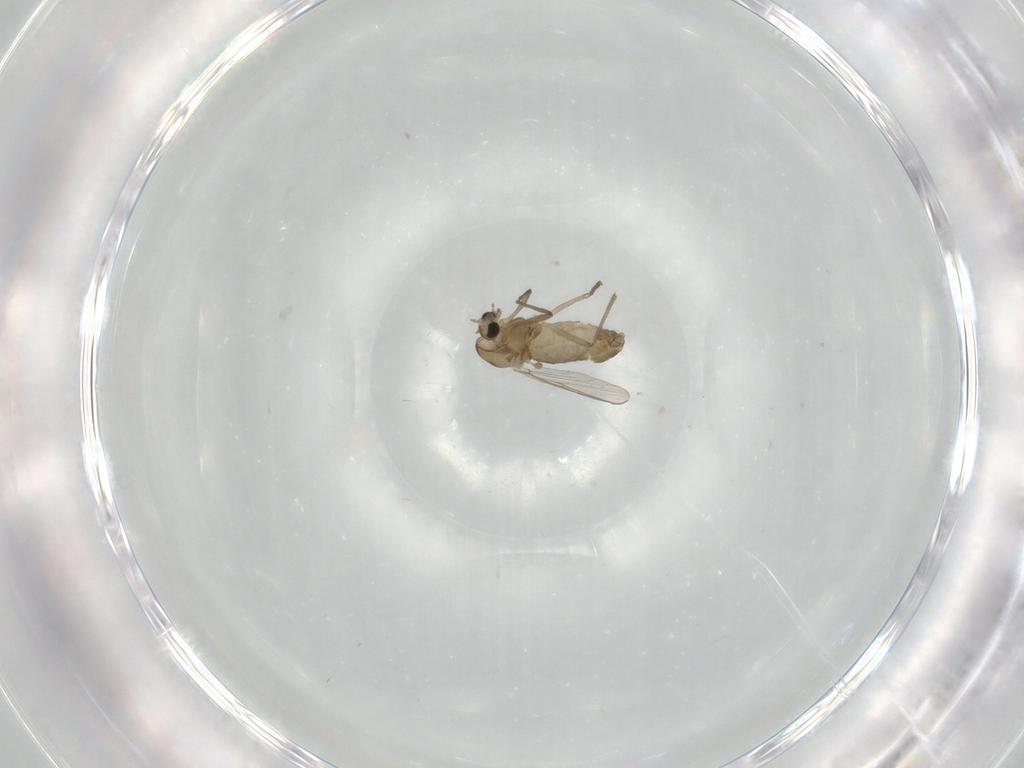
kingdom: Animalia
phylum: Arthropoda
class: Insecta
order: Diptera
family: Chironomidae
